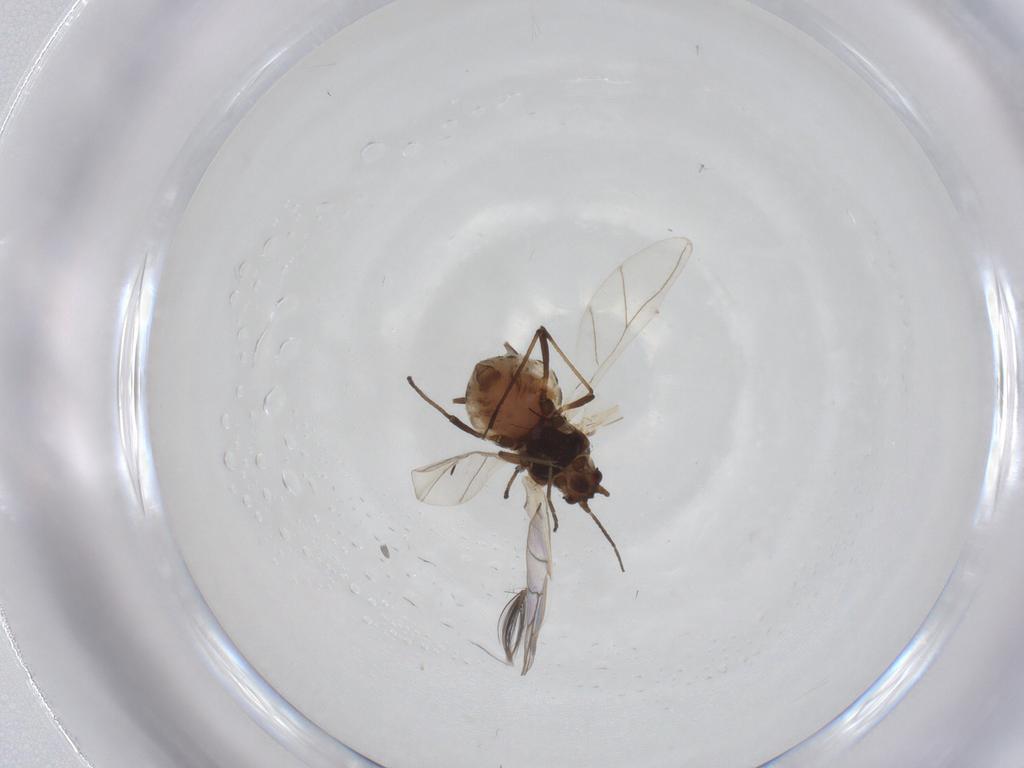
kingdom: Animalia
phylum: Arthropoda
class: Insecta
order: Hemiptera
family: Aphididae
